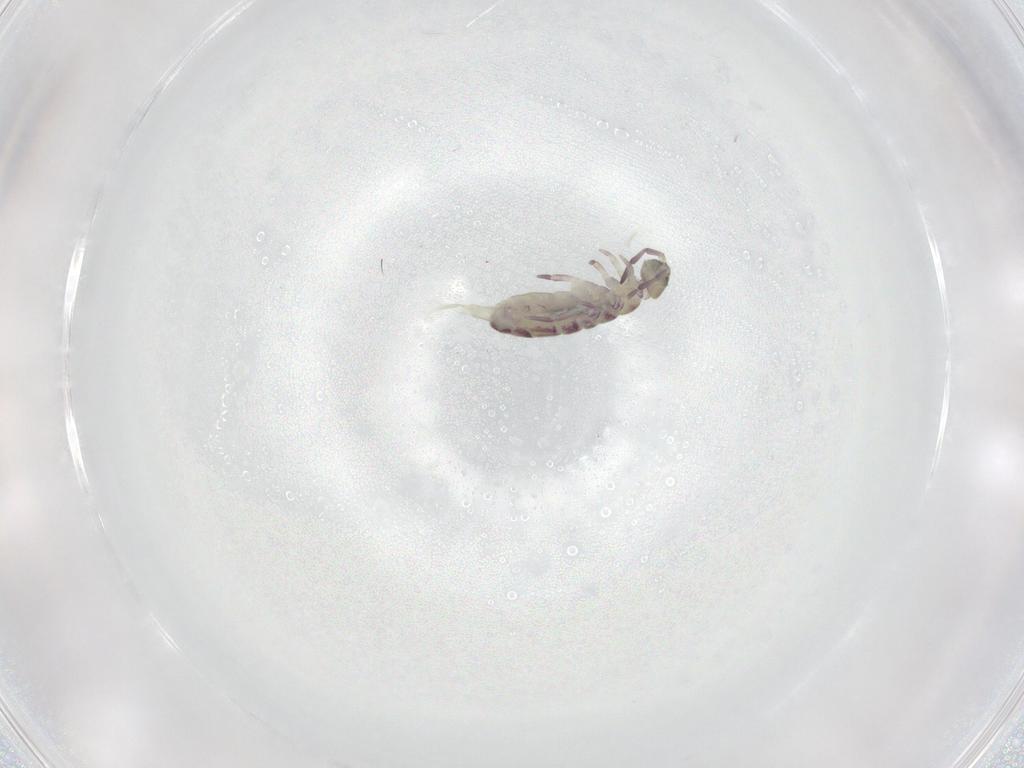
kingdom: Animalia
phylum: Arthropoda
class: Collembola
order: Entomobryomorpha
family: Isotomidae
